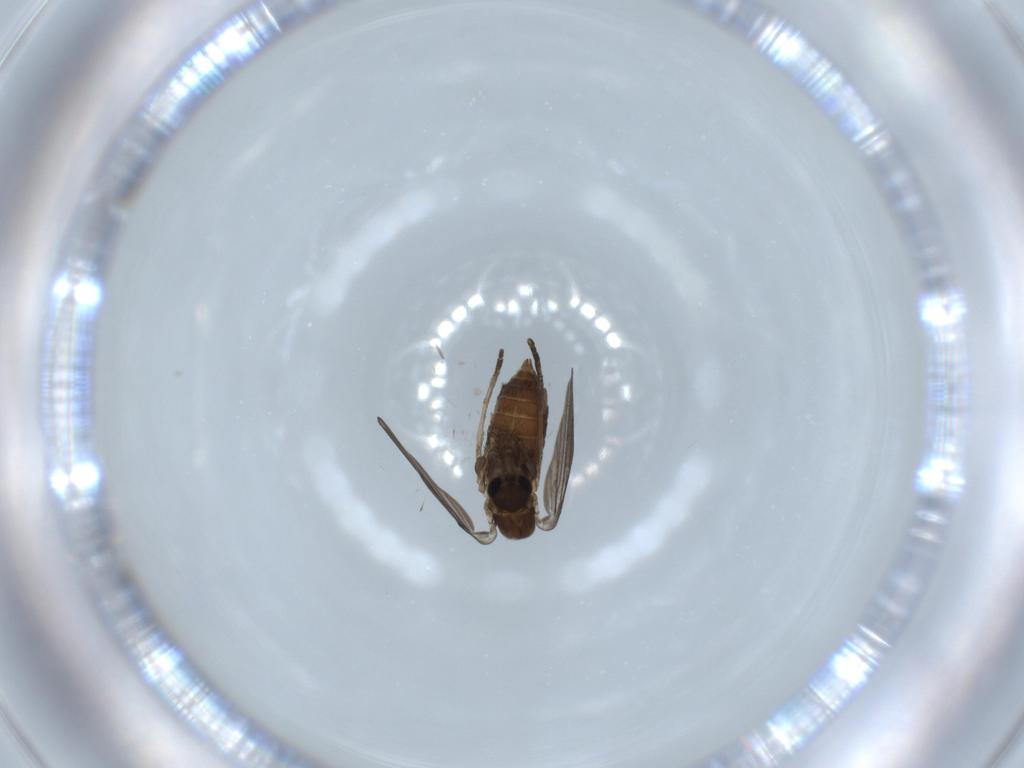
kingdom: Animalia
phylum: Arthropoda
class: Insecta
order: Diptera
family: Psychodidae
